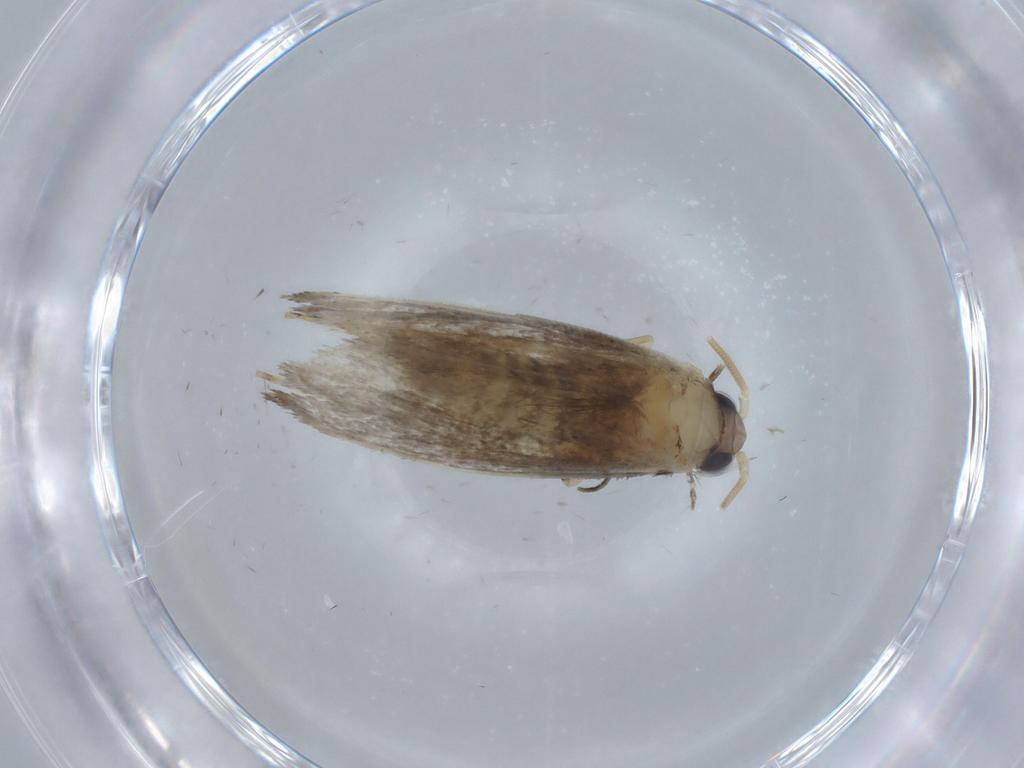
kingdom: Animalia
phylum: Arthropoda
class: Insecta
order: Lepidoptera
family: Tineidae
